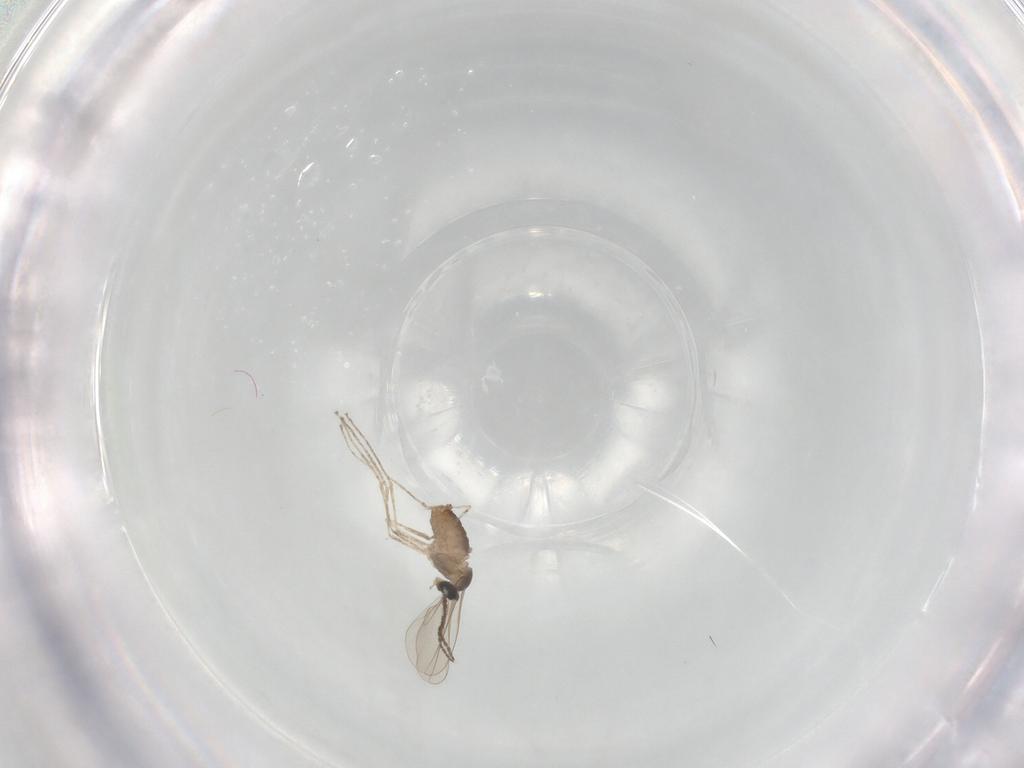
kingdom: Animalia
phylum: Arthropoda
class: Insecta
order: Diptera
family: Cecidomyiidae
